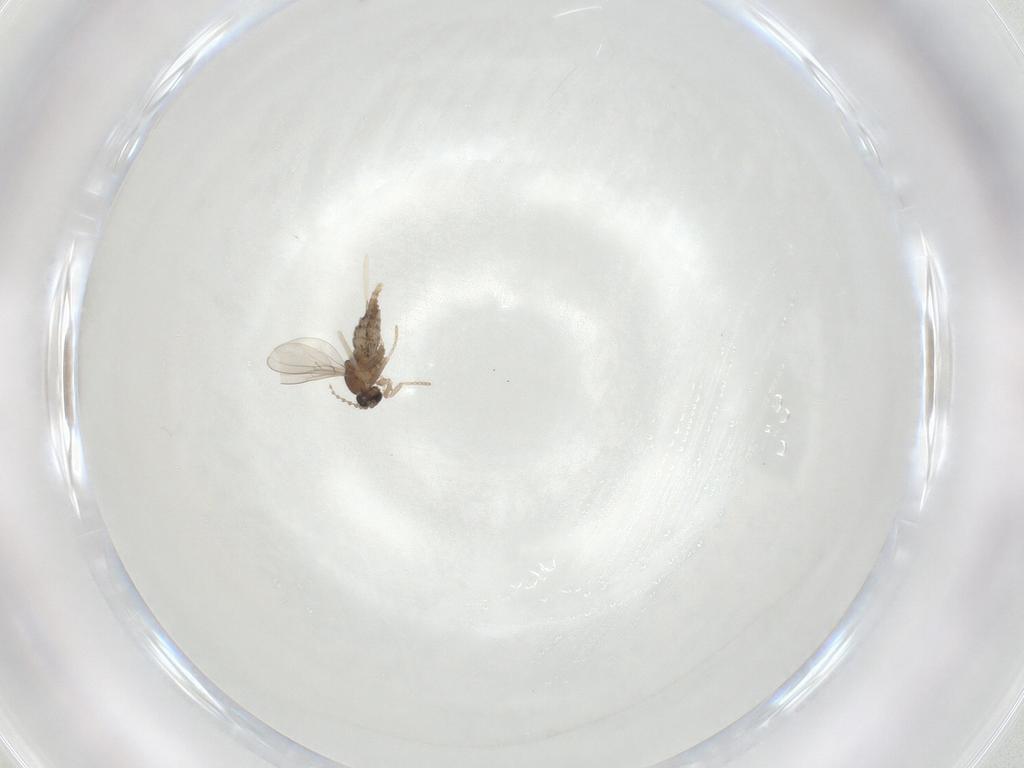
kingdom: Animalia
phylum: Arthropoda
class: Insecta
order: Diptera
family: Cecidomyiidae
